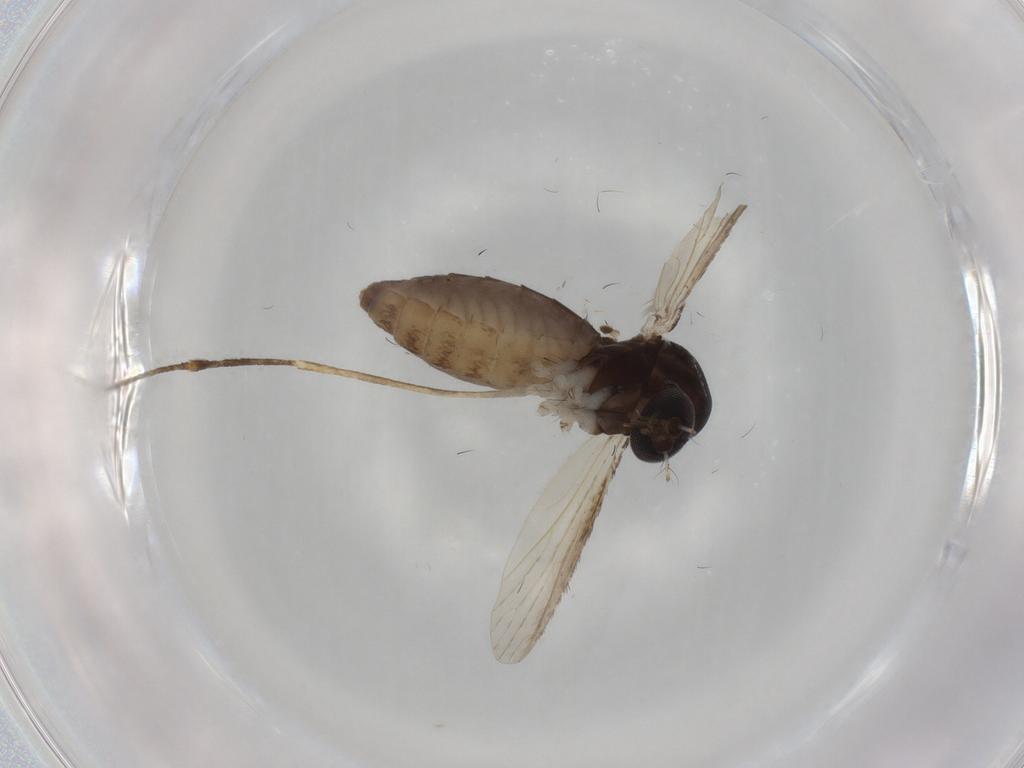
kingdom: Animalia
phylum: Arthropoda
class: Insecta
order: Diptera
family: Culicidae
